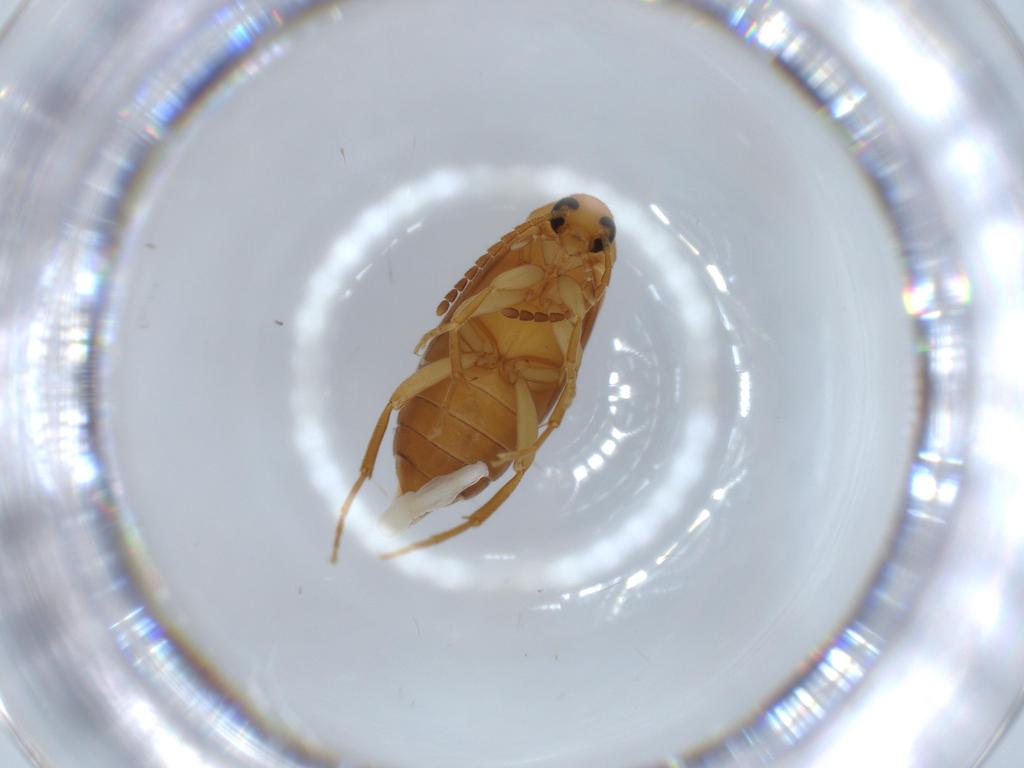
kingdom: Animalia
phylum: Arthropoda
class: Insecta
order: Coleoptera
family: Scraptiidae
